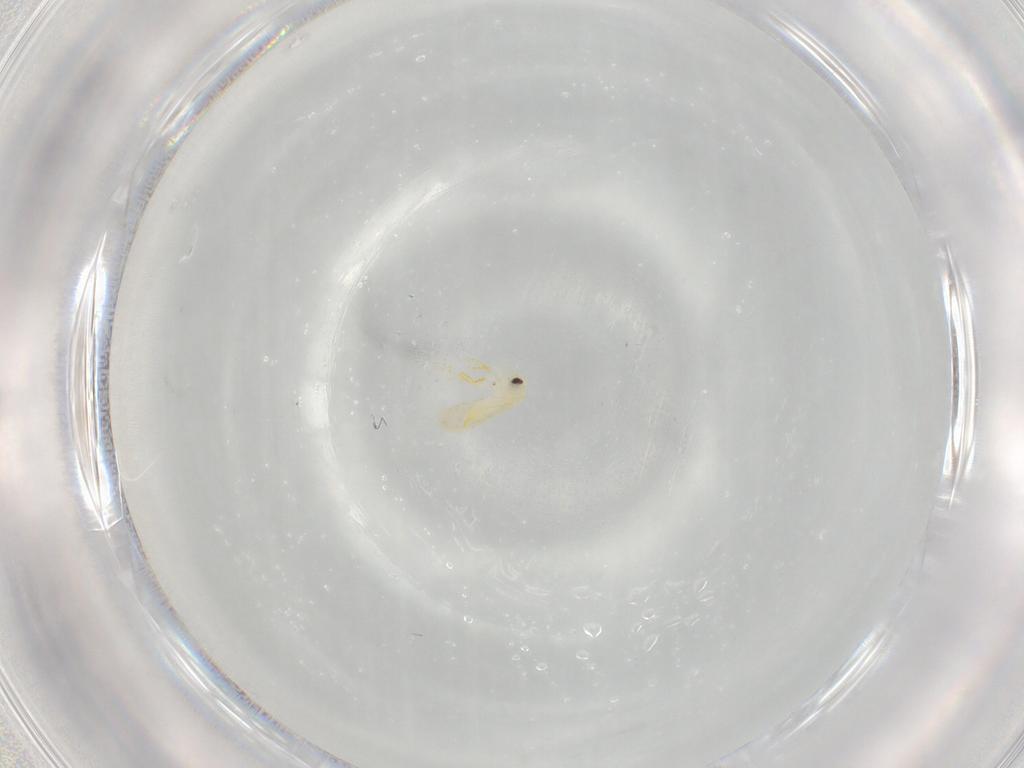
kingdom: Animalia
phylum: Arthropoda
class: Insecta
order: Hemiptera
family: Aleyrodidae
